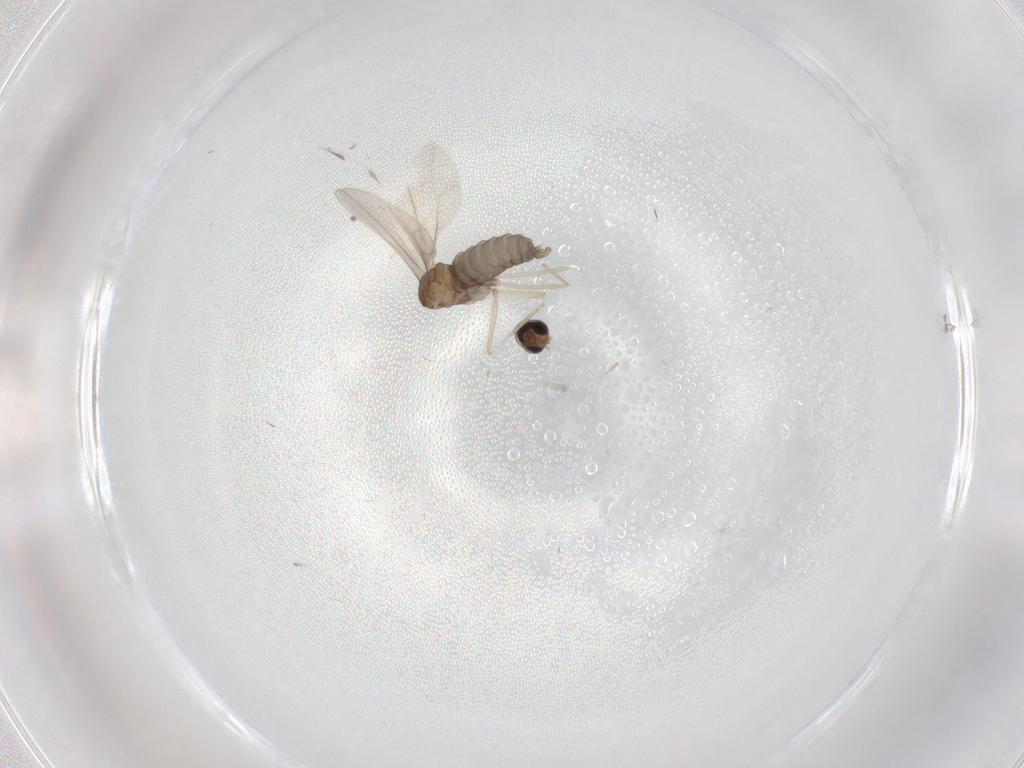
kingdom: Animalia
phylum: Arthropoda
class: Insecta
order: Diptera
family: Cecidomyiidae
